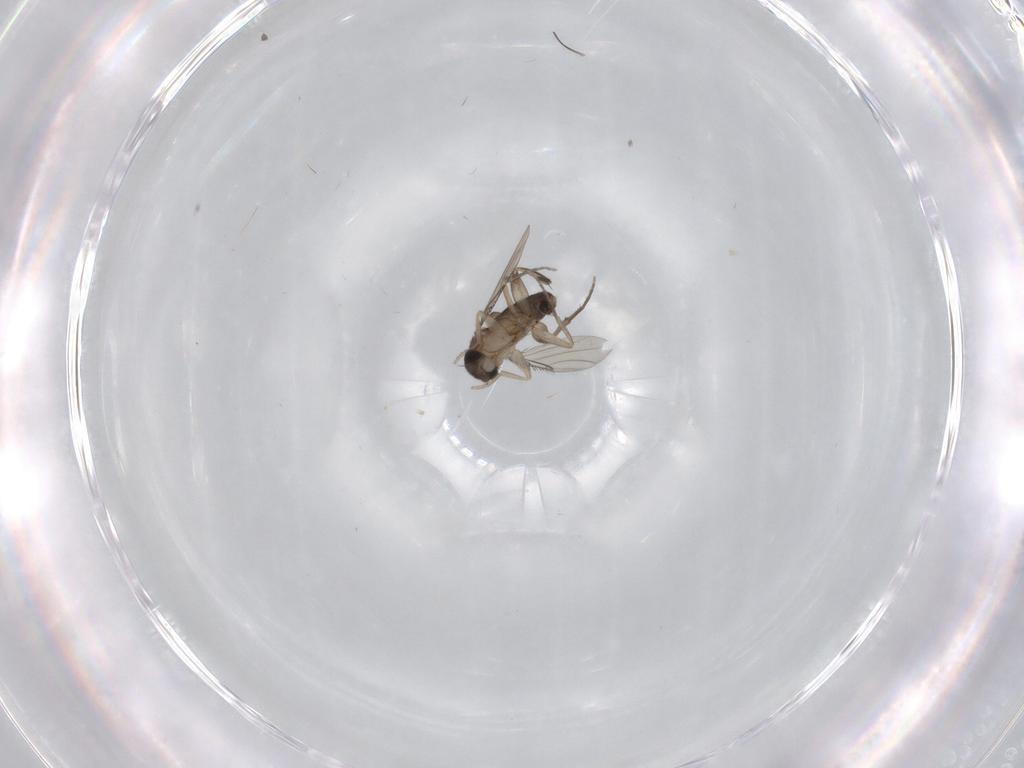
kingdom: Animalia
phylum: Arthropoda
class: Insecta
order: Diptera
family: Phoridae
